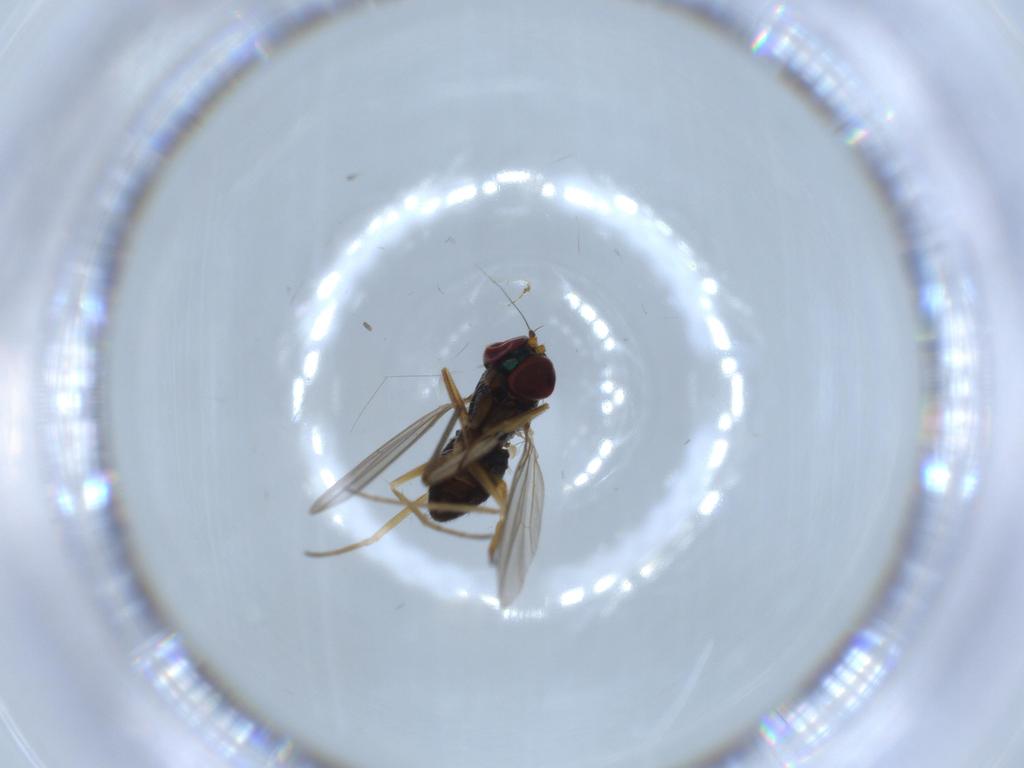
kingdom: Animalia
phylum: Arthropoda
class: Insecta
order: Diptera
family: Sciaridae
